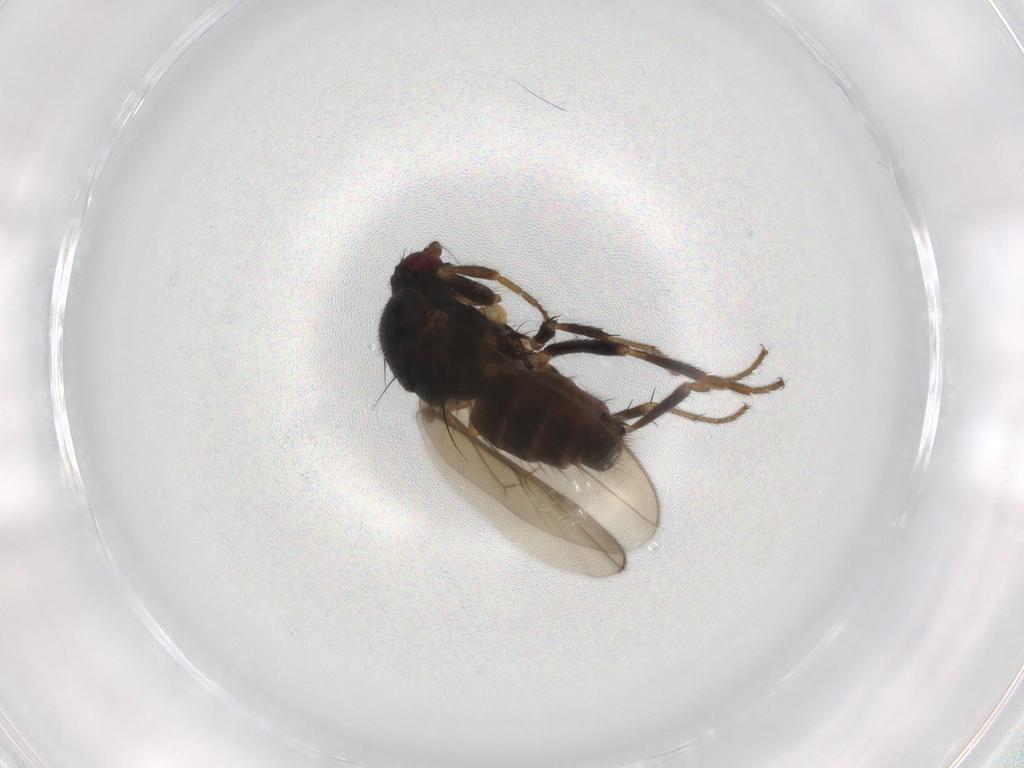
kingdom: Animalia
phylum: Arthropoda
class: Insecta
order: Diptera
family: Sphaeroceridae
